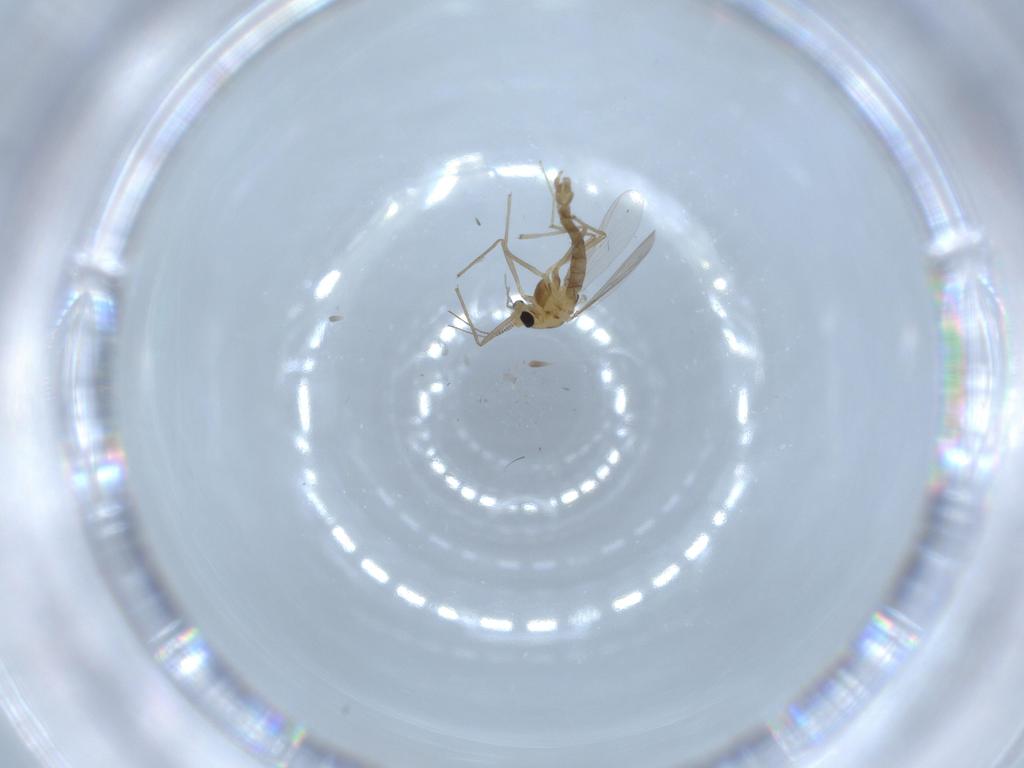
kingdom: Animalia
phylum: Arthropoda
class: Insecta
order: Diptera
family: Chironomidae
